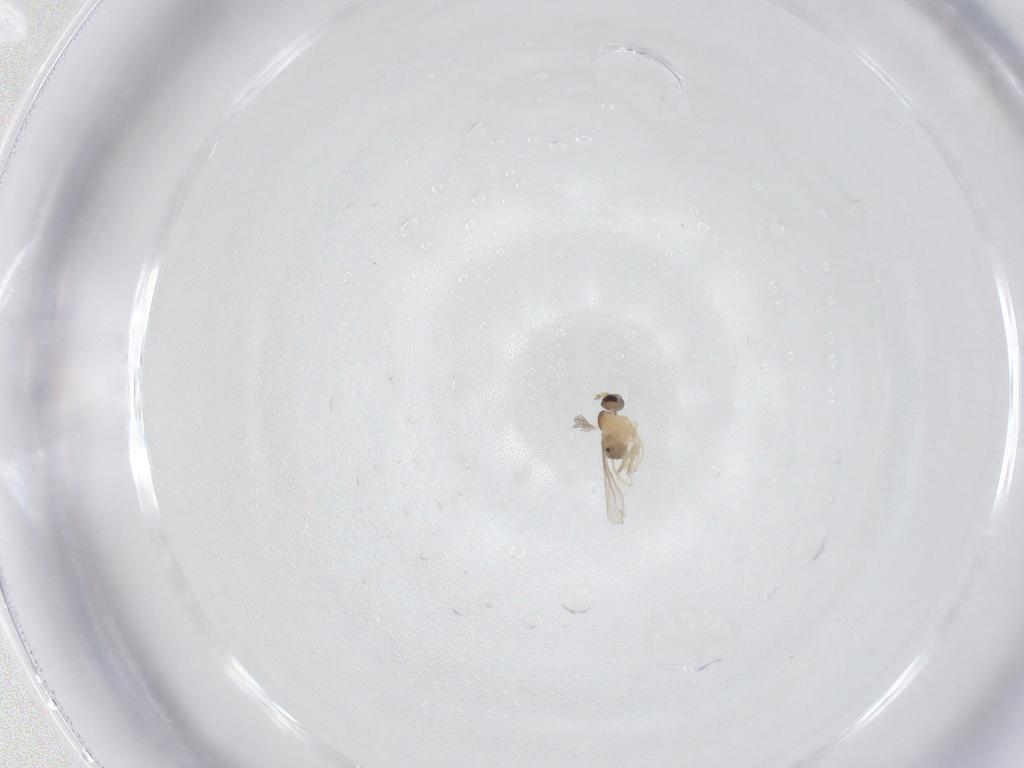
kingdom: Animalia
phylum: Arthropoda
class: Insecta
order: Diptera
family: Cecidomyiidae
